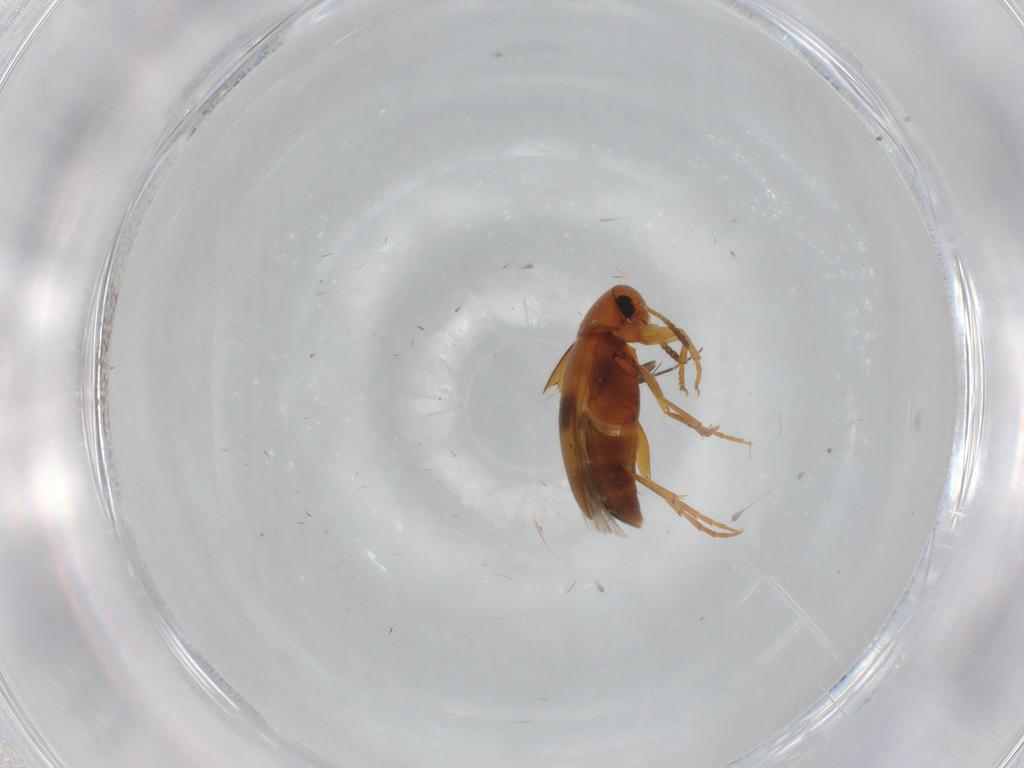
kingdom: Animalia
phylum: Arthropoda
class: Insecta
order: Coleoptera
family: Scraptiidae
